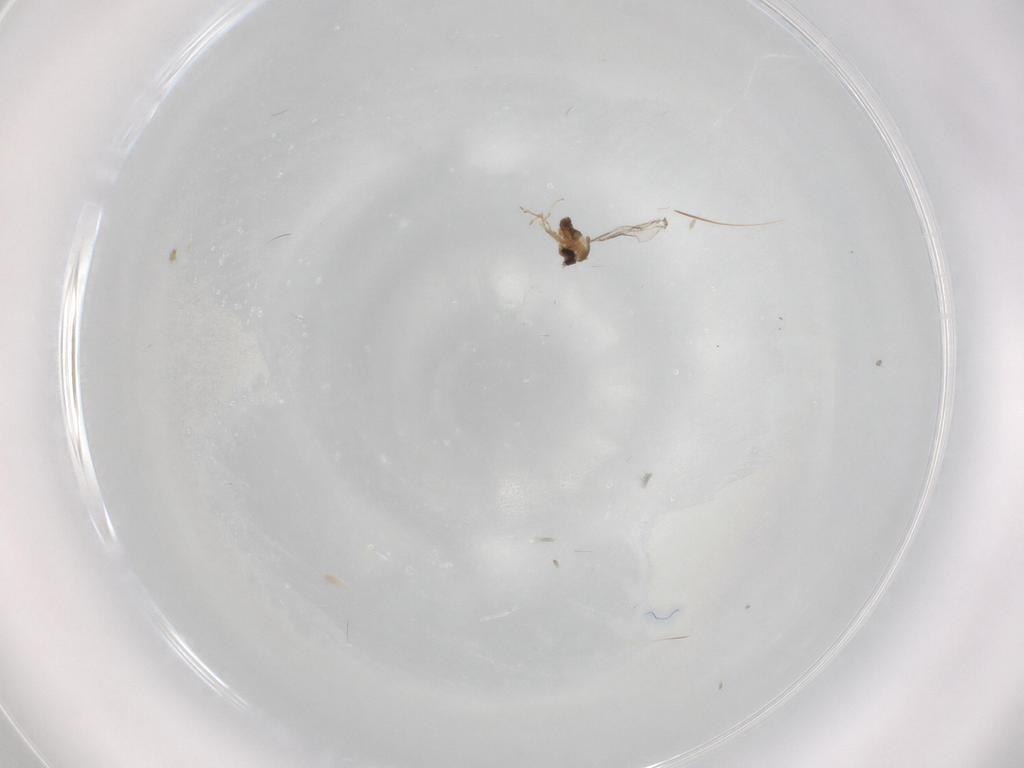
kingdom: Animalia
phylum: Arthropoda
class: Insecta
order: Diptera
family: Cecidomyiidae
